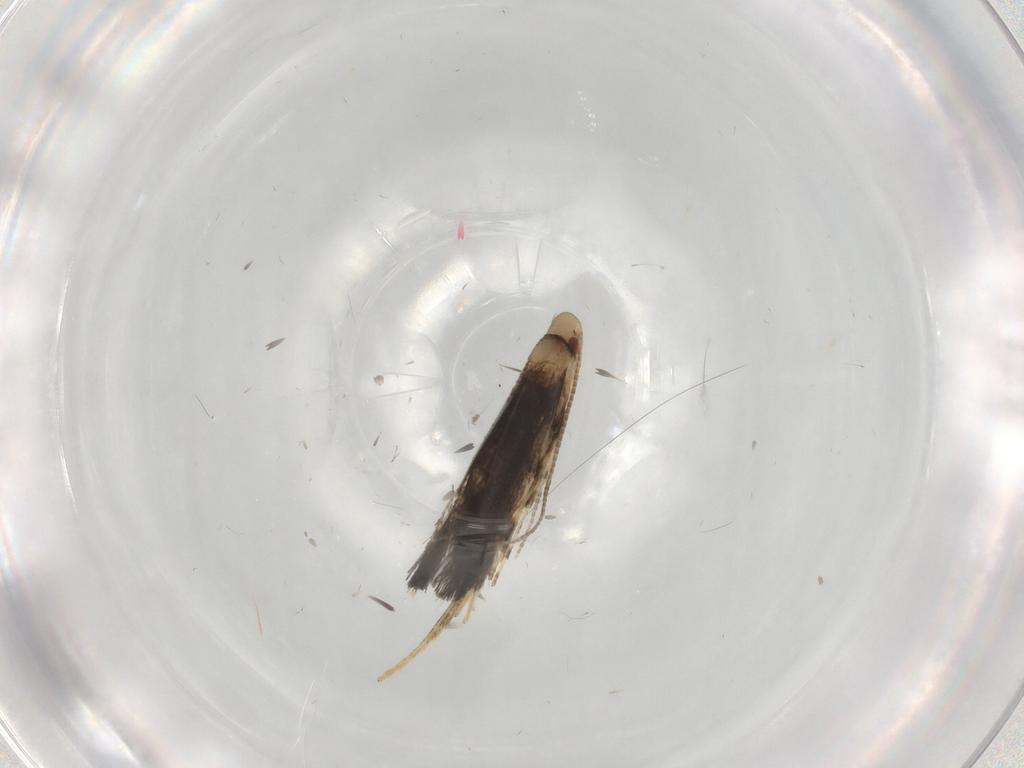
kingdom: Animalia
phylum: Arthropoda
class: Insecta
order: Lepidoptera
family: Gracillariidae
